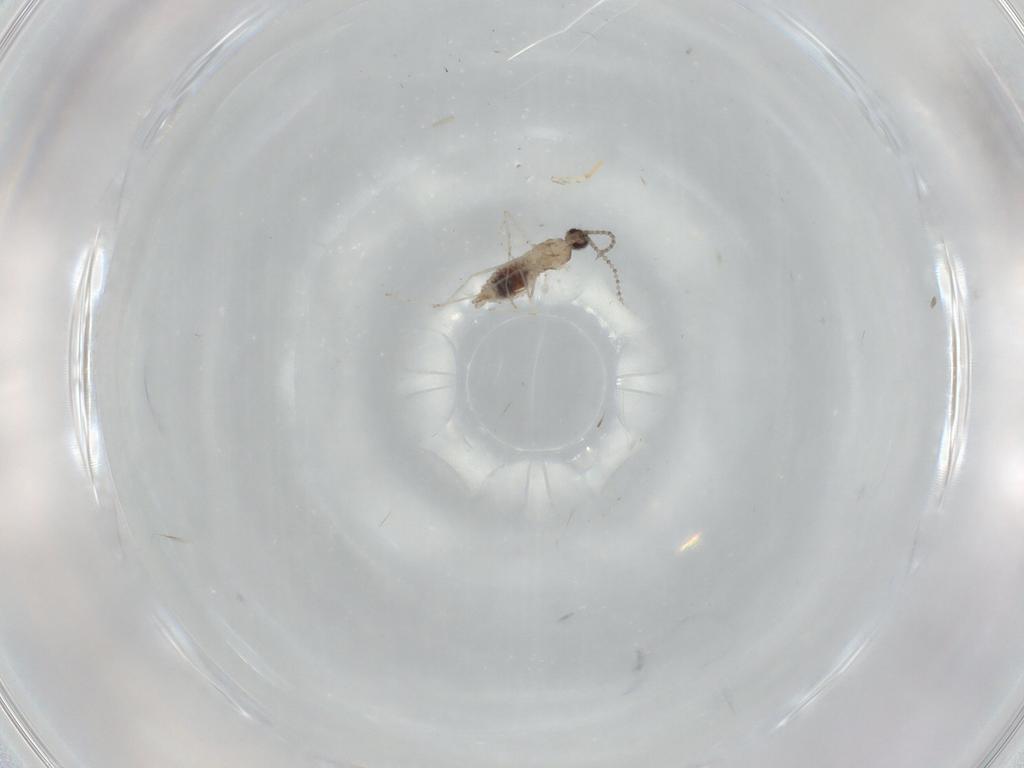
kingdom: Animalia
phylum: Arthropoda
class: Insecta
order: Diptera
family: Cecidomyiidae
